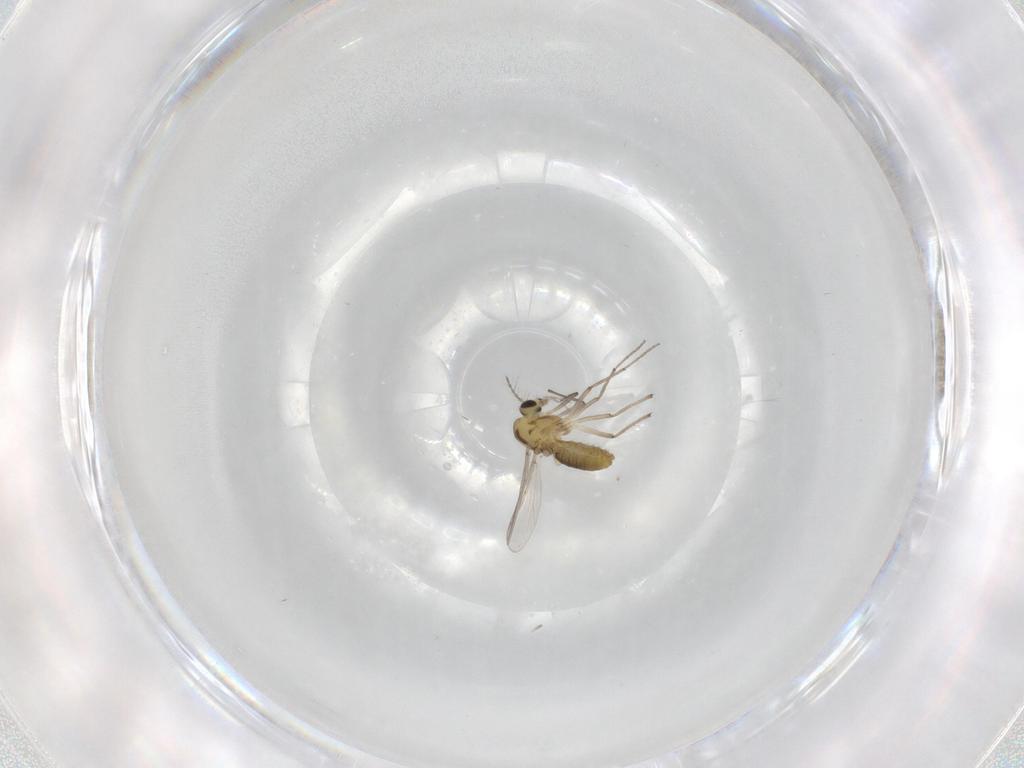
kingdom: Animalia
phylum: Arthropoda
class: Insecta
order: Diptera
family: Chironomidae
